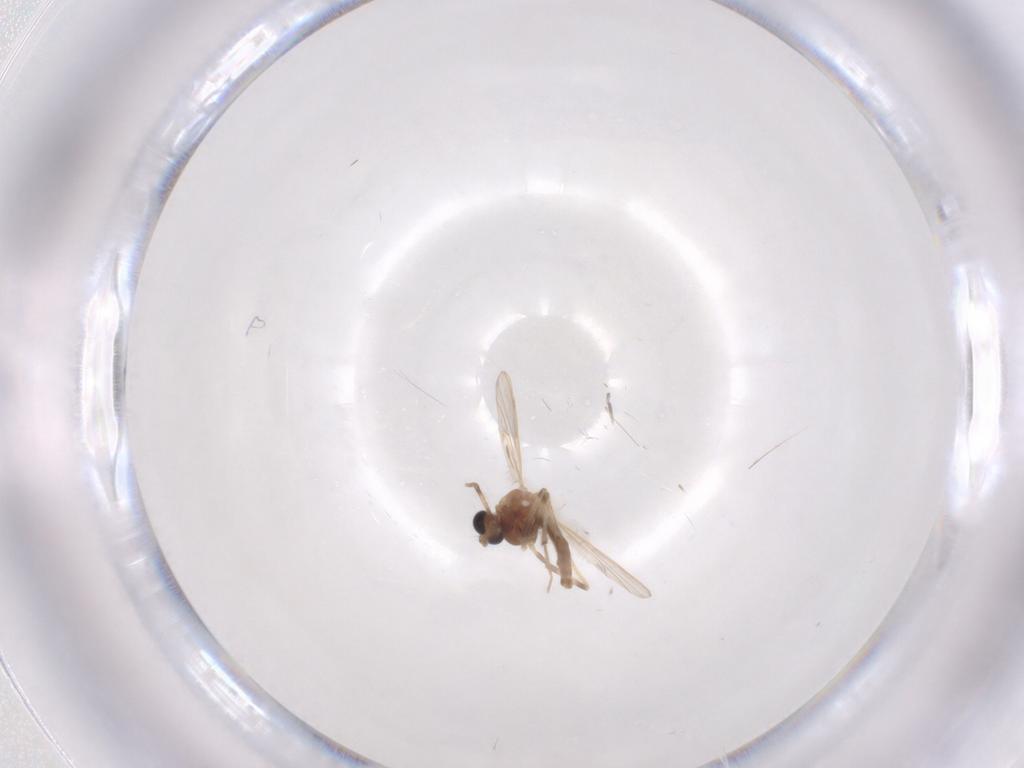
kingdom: Animalia
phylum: Arthropoda
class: Insecta
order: Diptera
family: Chironomidae
